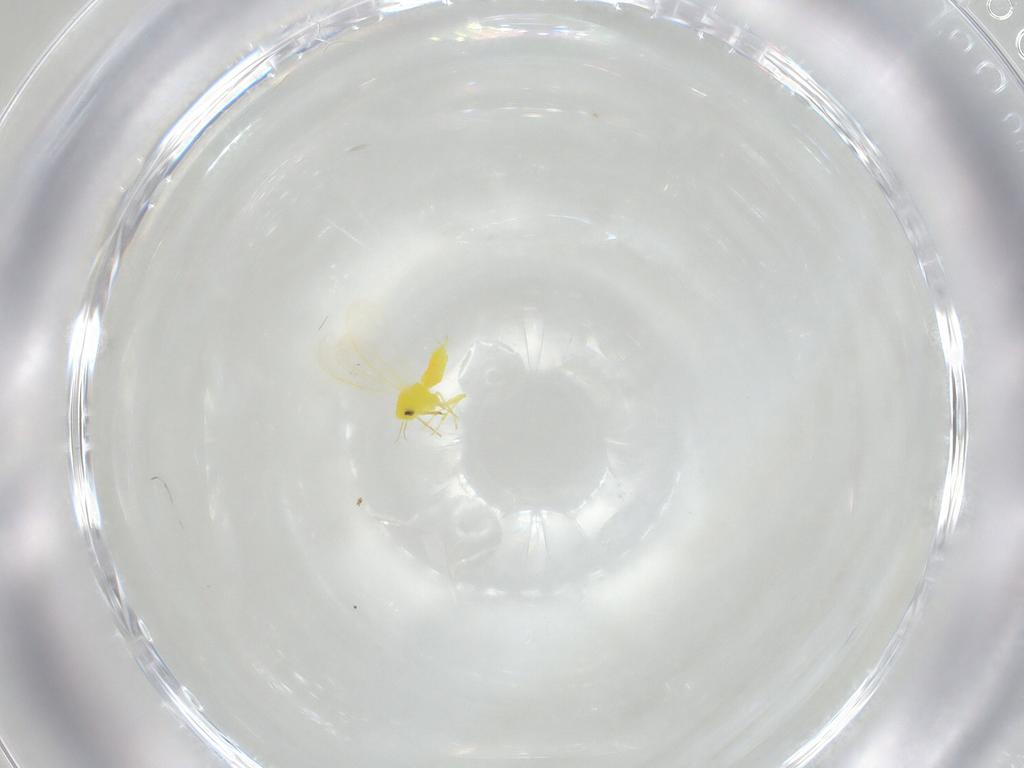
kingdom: Animalia
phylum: Arthropoda
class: Insecta
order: Hemiptera
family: Aleyrodidae
